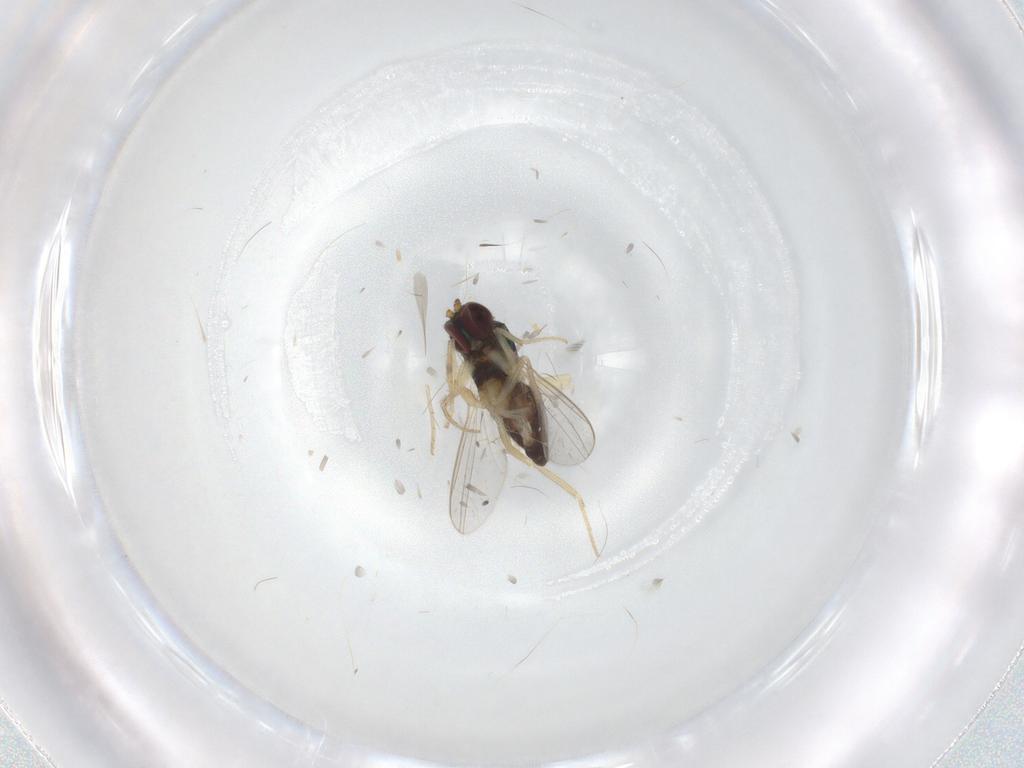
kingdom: Animalia
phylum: Arthropoda
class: Insecta
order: Diptera
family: Dolichopodidae
